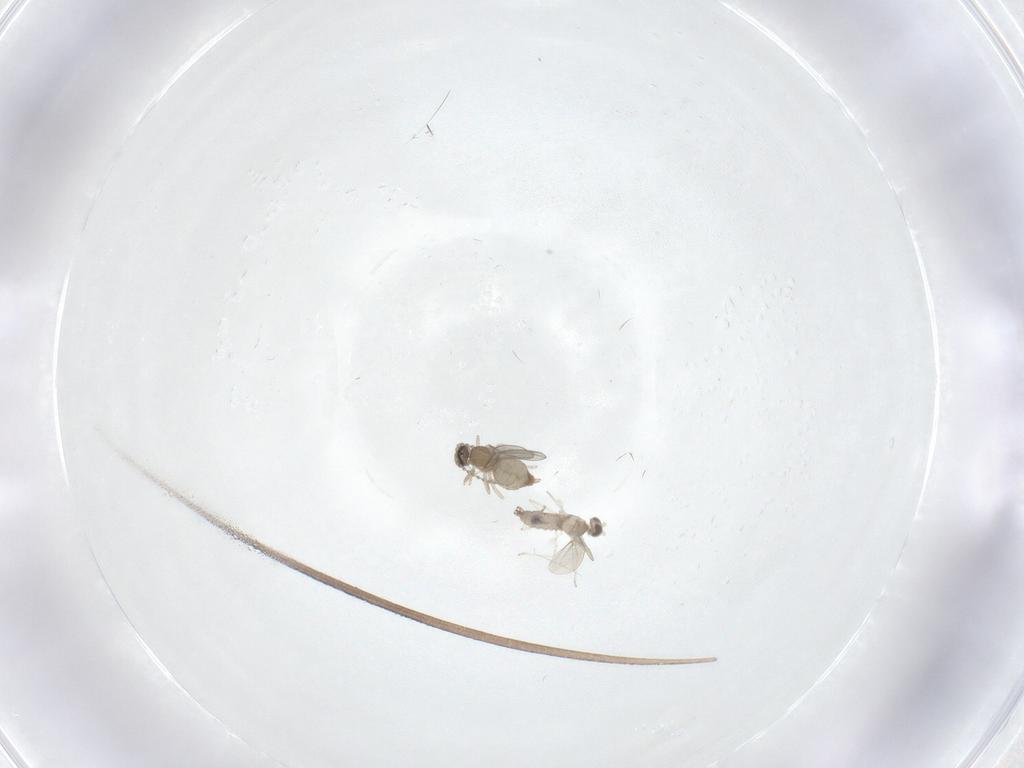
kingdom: Animalia
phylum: Arthropoda
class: Insecta
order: Diptera
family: Cecidomyiidae
